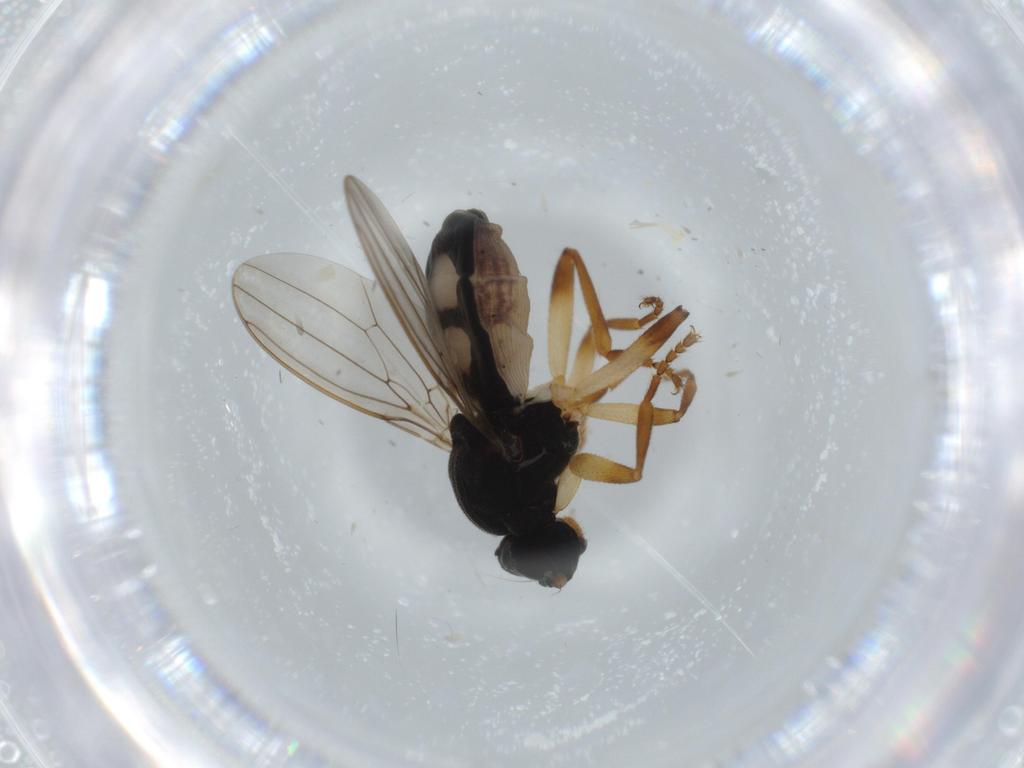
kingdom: Animalia
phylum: Arthropoda
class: Insecta
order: Diptera
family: Sphaeroceridae
